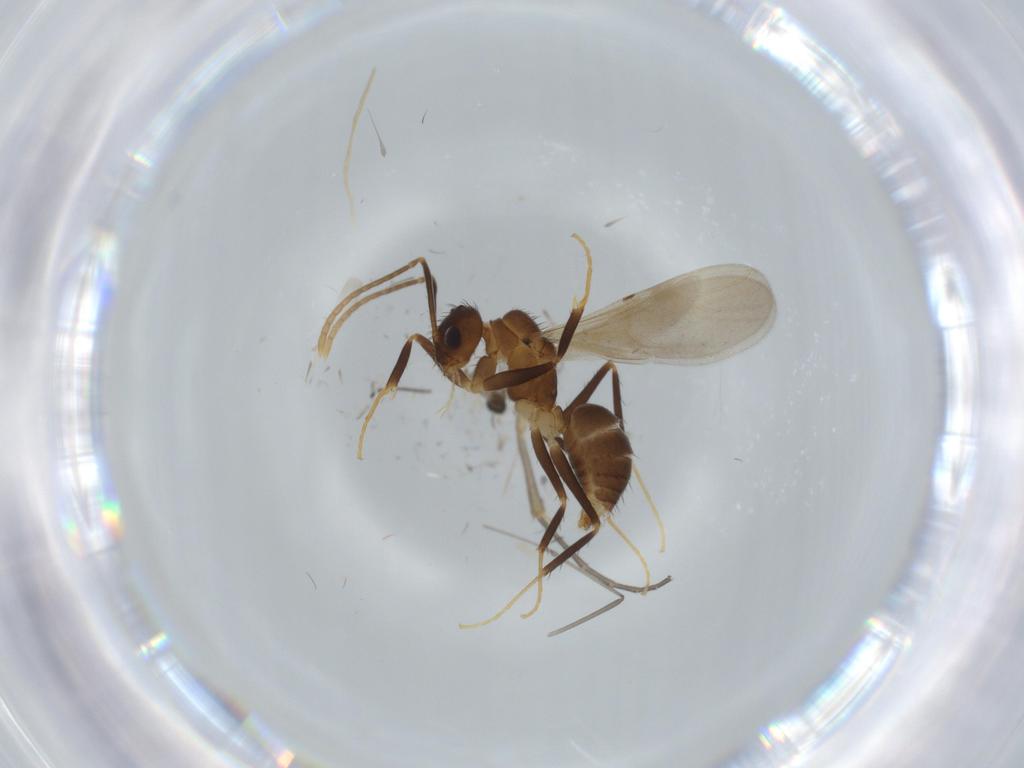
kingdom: Animalia
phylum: Arthropoda
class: Insecta
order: Hymenoptera
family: Formicidae
